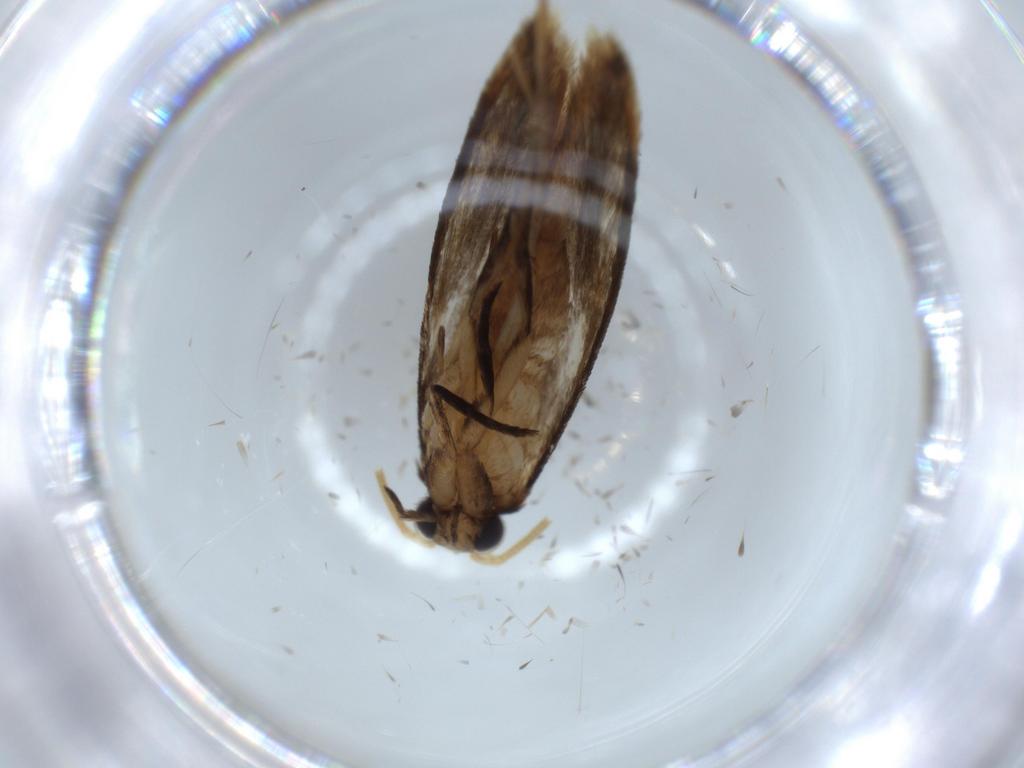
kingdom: Animalia
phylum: Arthropoda
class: Insecta
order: Lepidoptera
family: Tineidae
